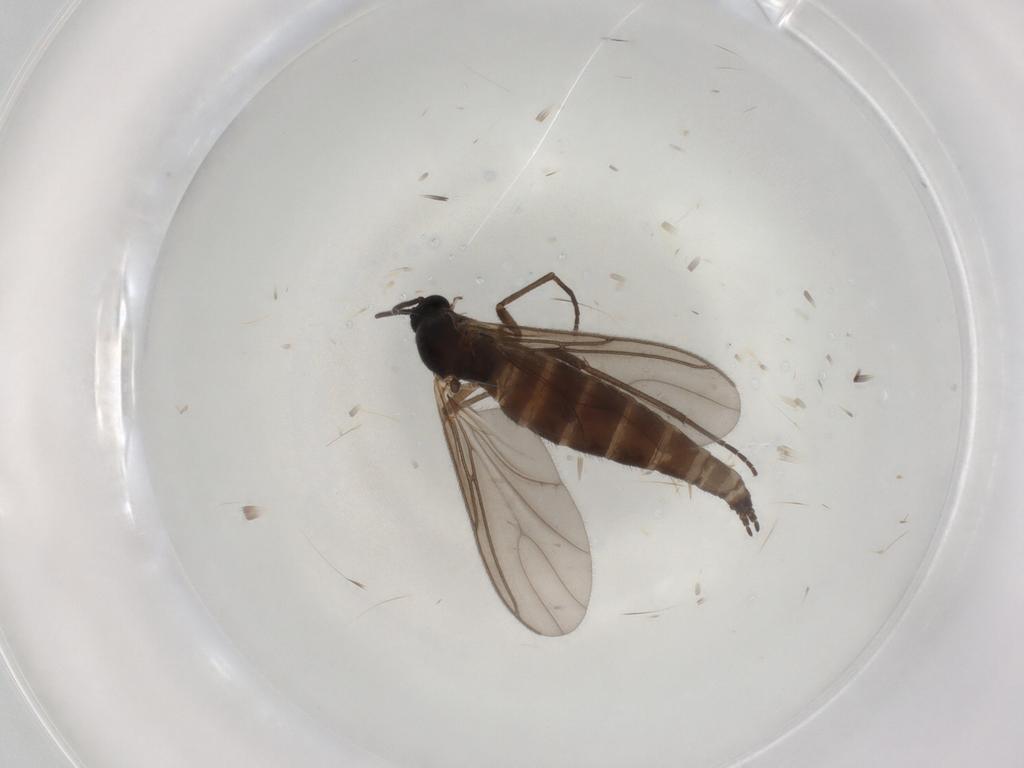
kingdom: Animalia
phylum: Arthropoda
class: Insecta
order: Diptera
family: Sciaridae
